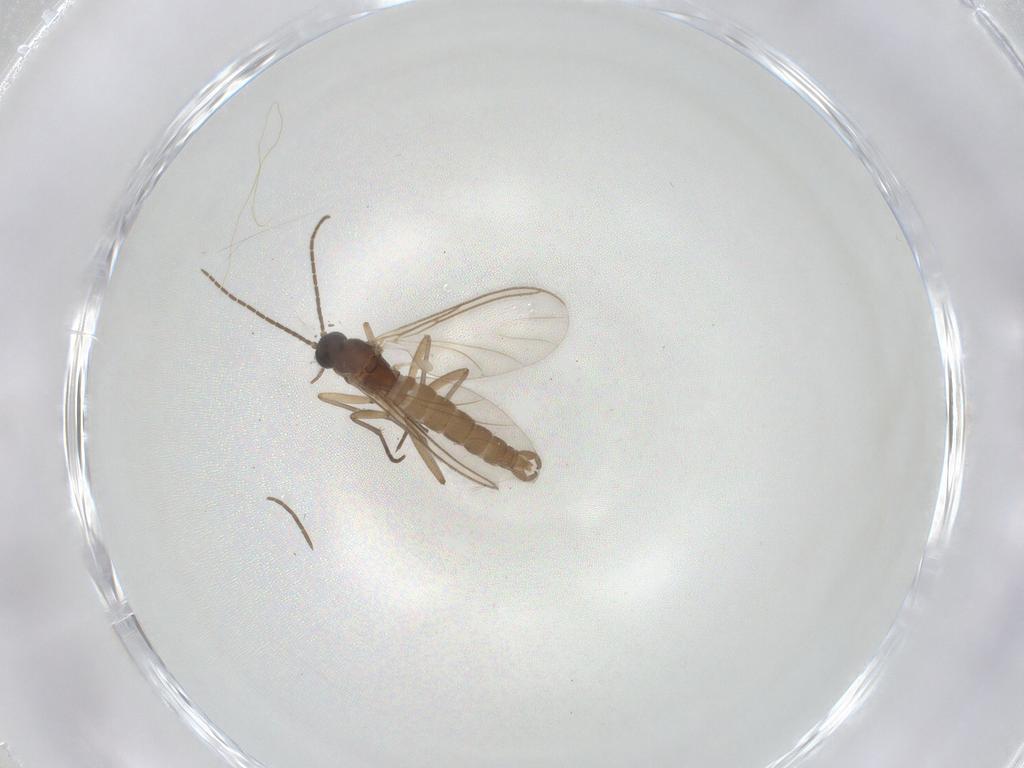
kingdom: Animalia
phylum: Arthropoda
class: Insecta
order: Diptera
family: Sciaridae
